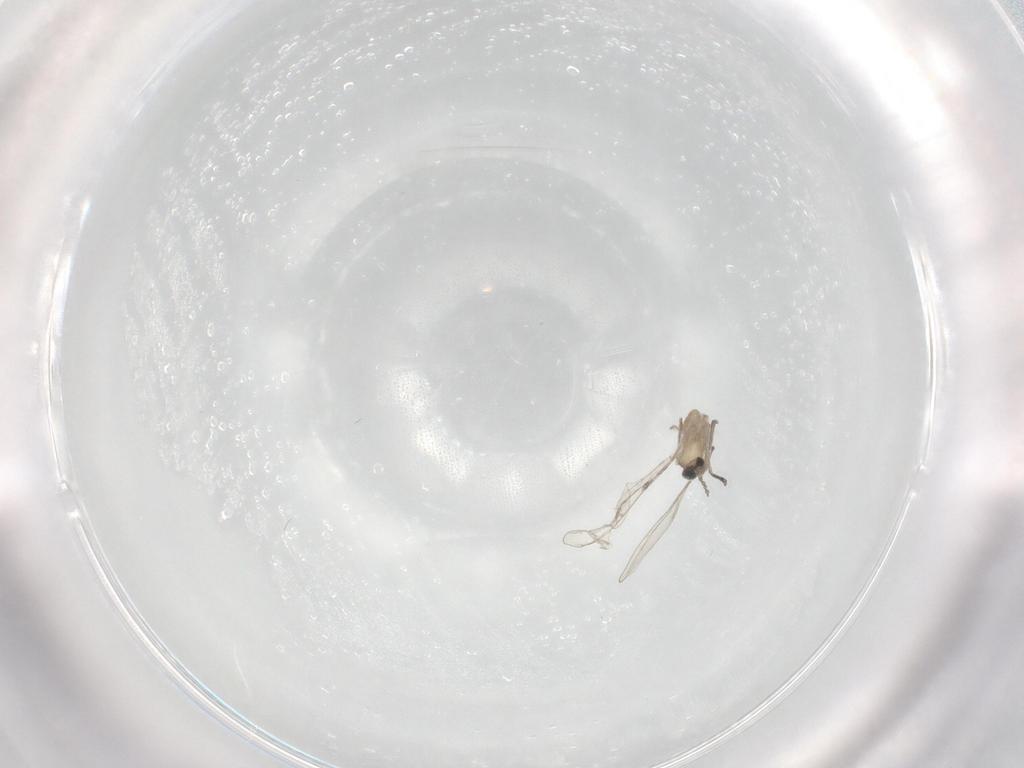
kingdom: Animalia
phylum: Arthropoda
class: Insecta
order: Diptera
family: Cecidomyiidae
